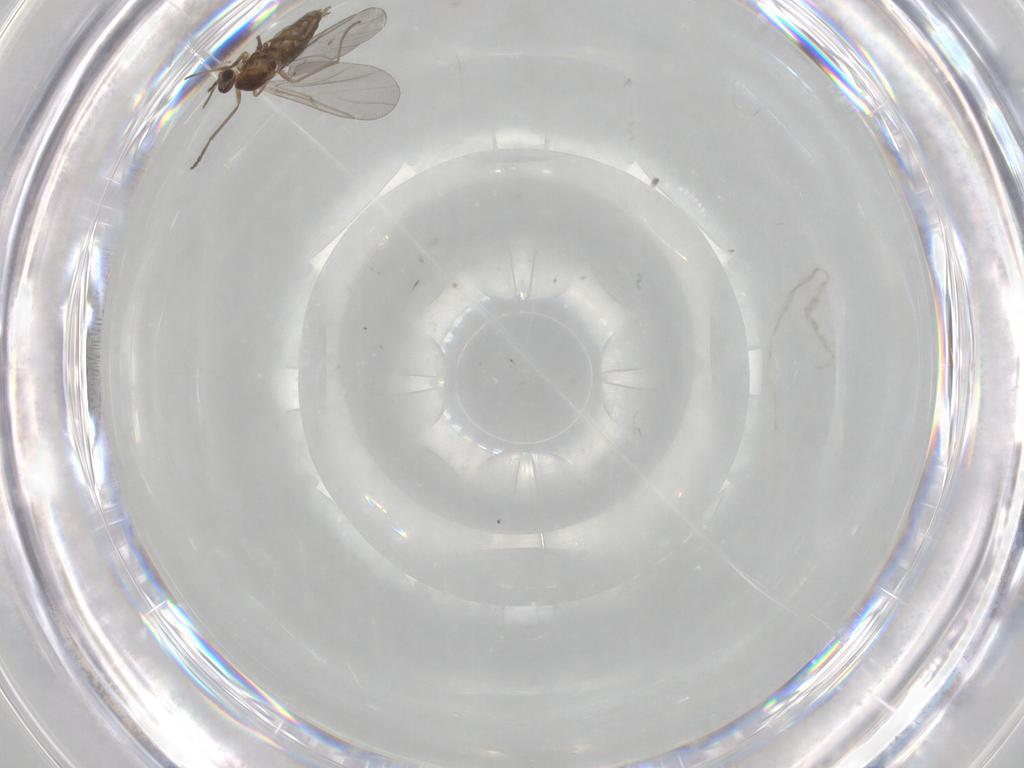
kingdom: Animalia
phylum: Arthropoda
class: Insecta
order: Diptera
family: Cecidomyiidae
